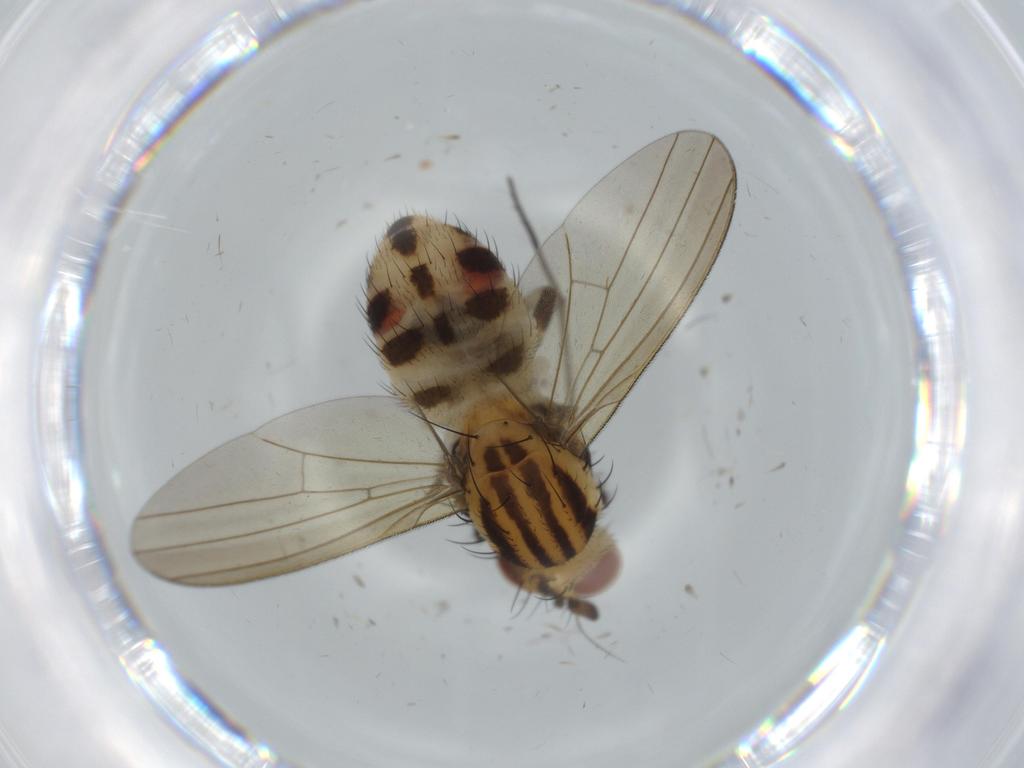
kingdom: Animalia
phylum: Arthropoda
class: Insecta
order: Diptera
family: Lauxaniidae
